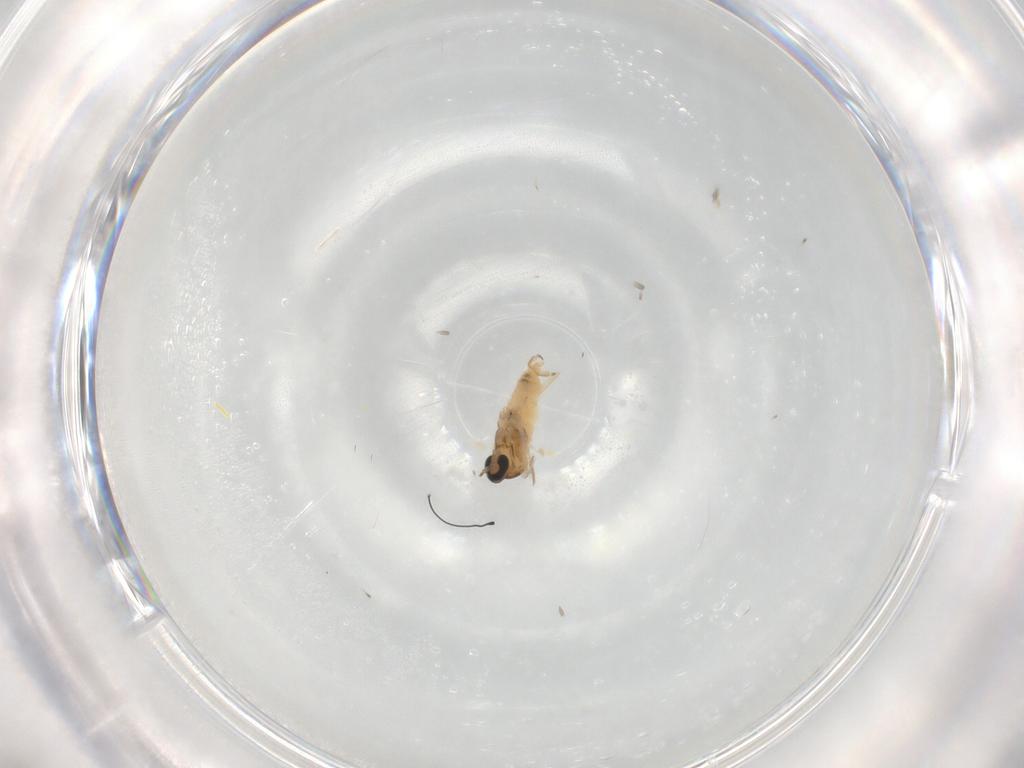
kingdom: Animalia
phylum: Arthropoda
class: Insecta
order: Diptera
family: Cecidomyiidae
